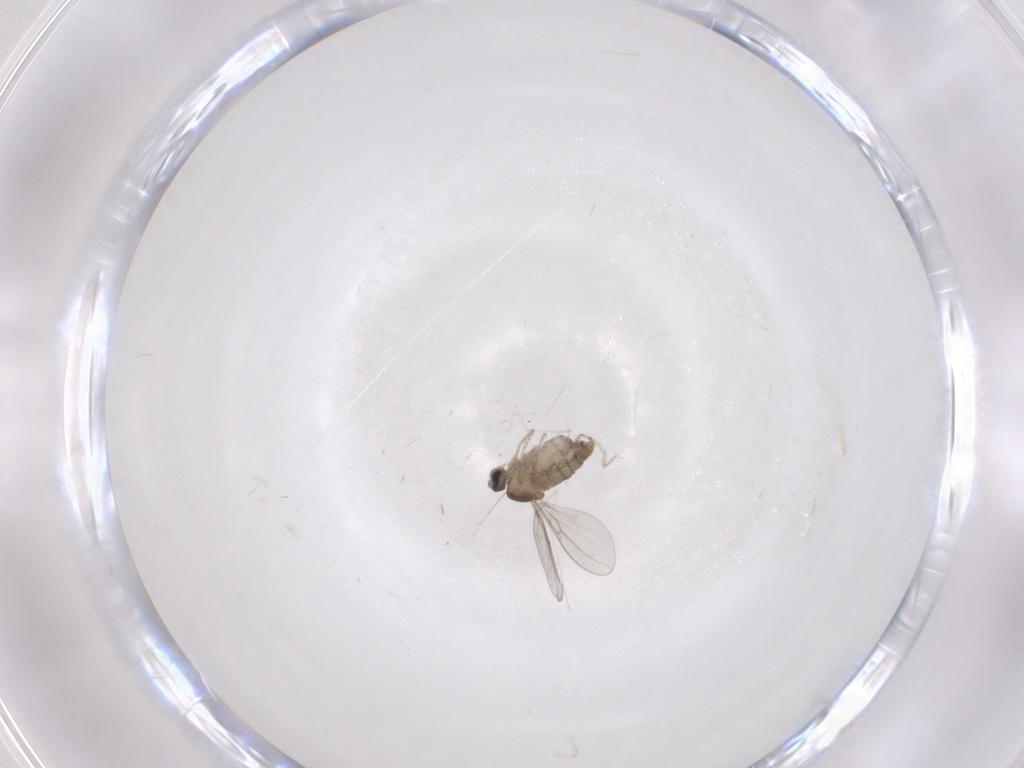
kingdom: Animalia
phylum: Arthropoda
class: Insecta
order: Diptera
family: Cecidomyiidae
